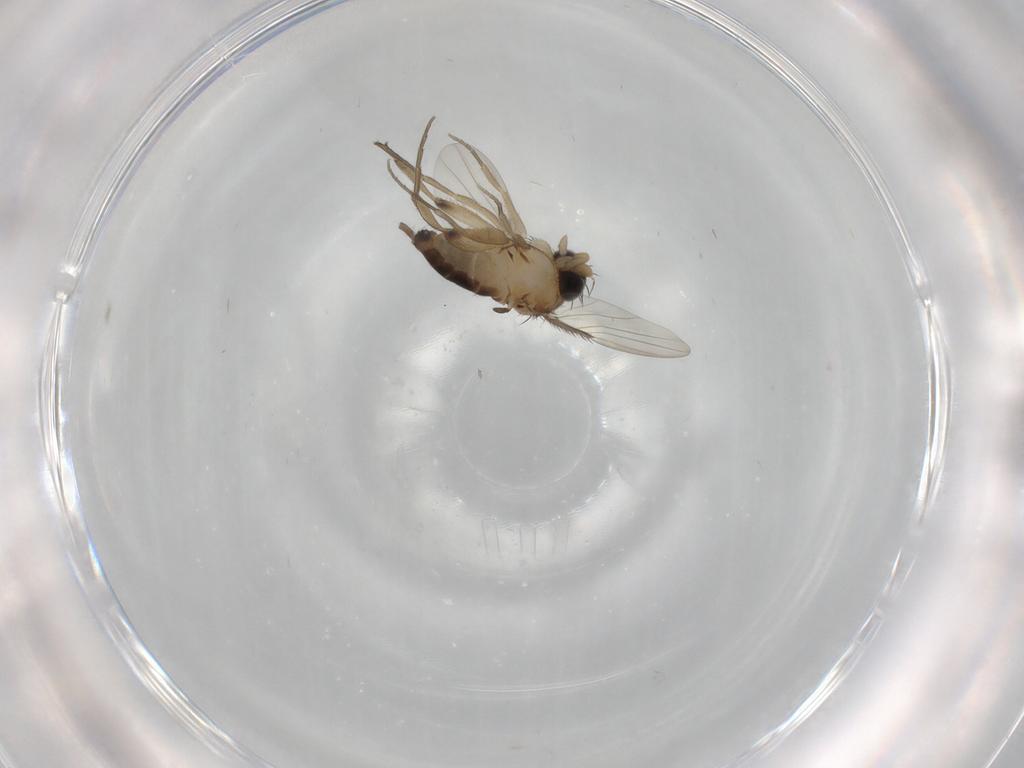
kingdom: Animalia
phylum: Arthropoda
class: Insecta
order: Diptera
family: Phoridae
